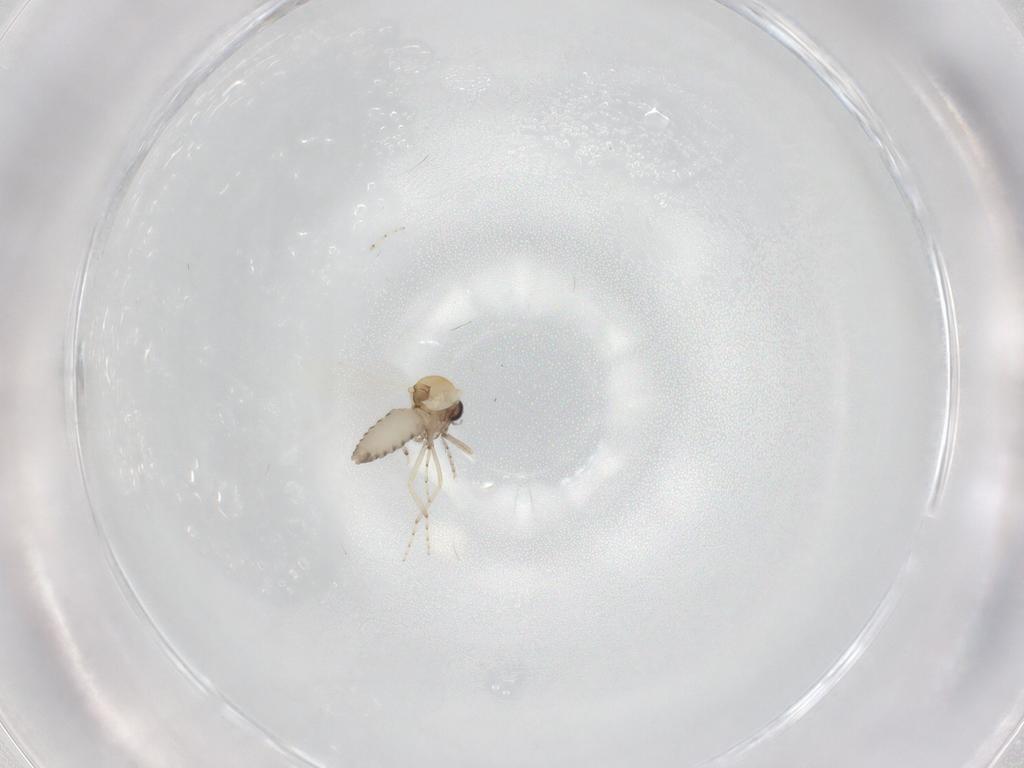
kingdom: Animalia
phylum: Arthropoda
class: Insecta
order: Diptera
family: Ceratopogonidae
